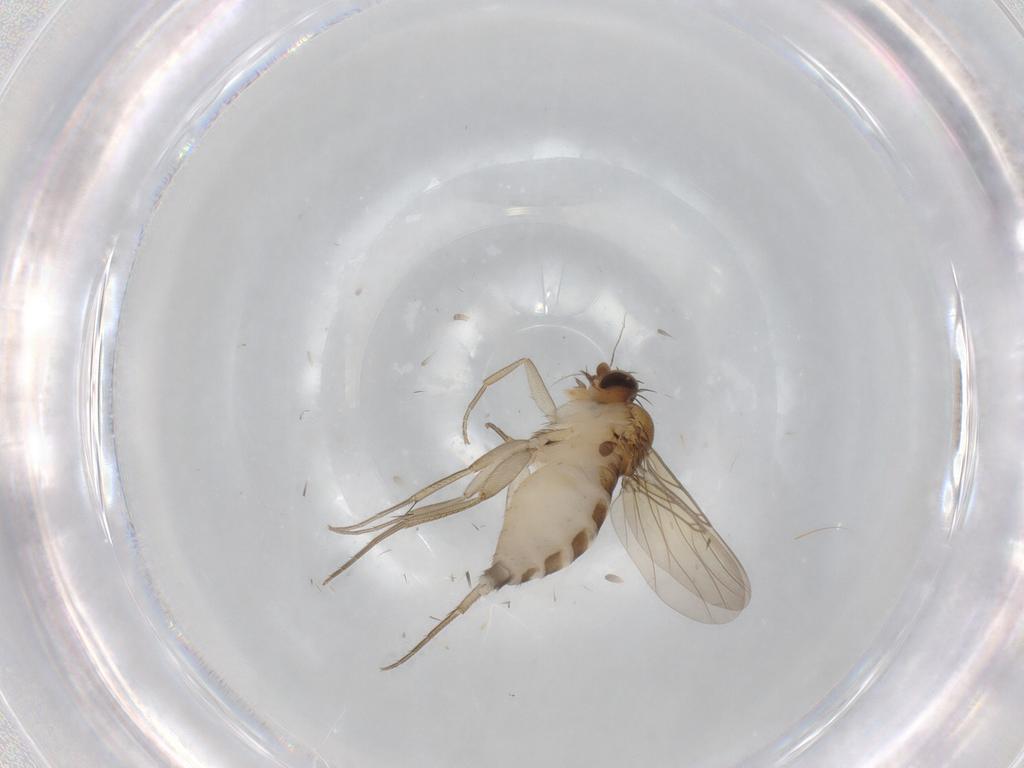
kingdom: Animalia
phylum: Arthropoda
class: Insecta
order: Diptera
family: Phoridae
